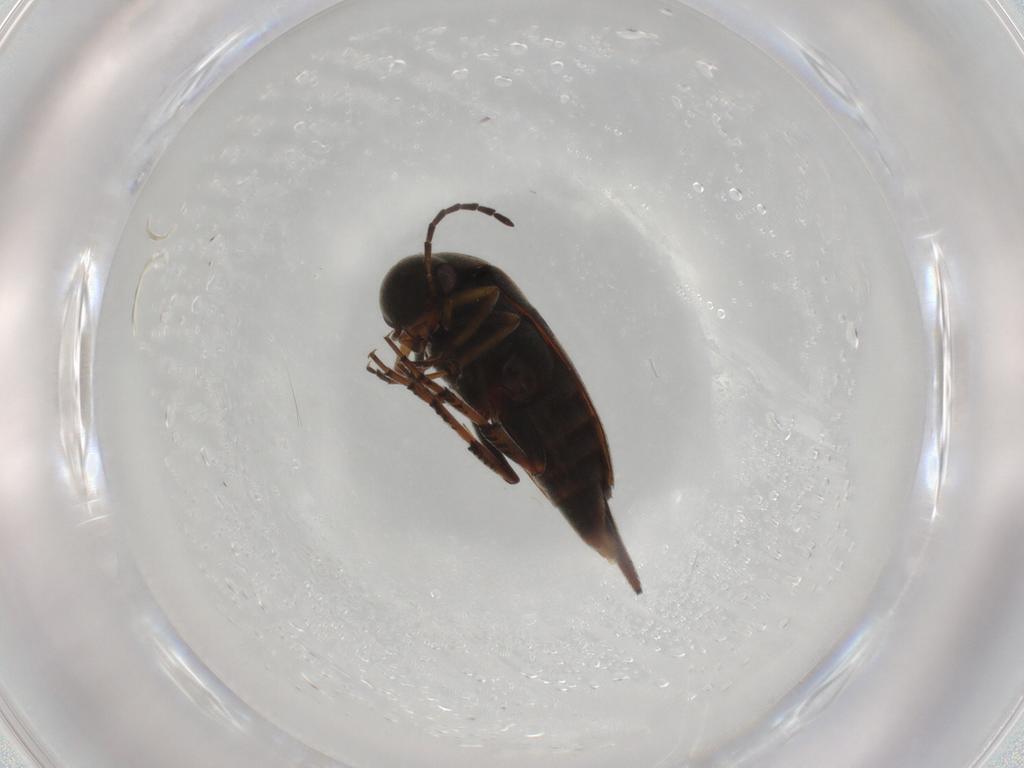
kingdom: Animalia
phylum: Arthropoda
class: Insecta
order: Coleoptera
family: Mordellidae
